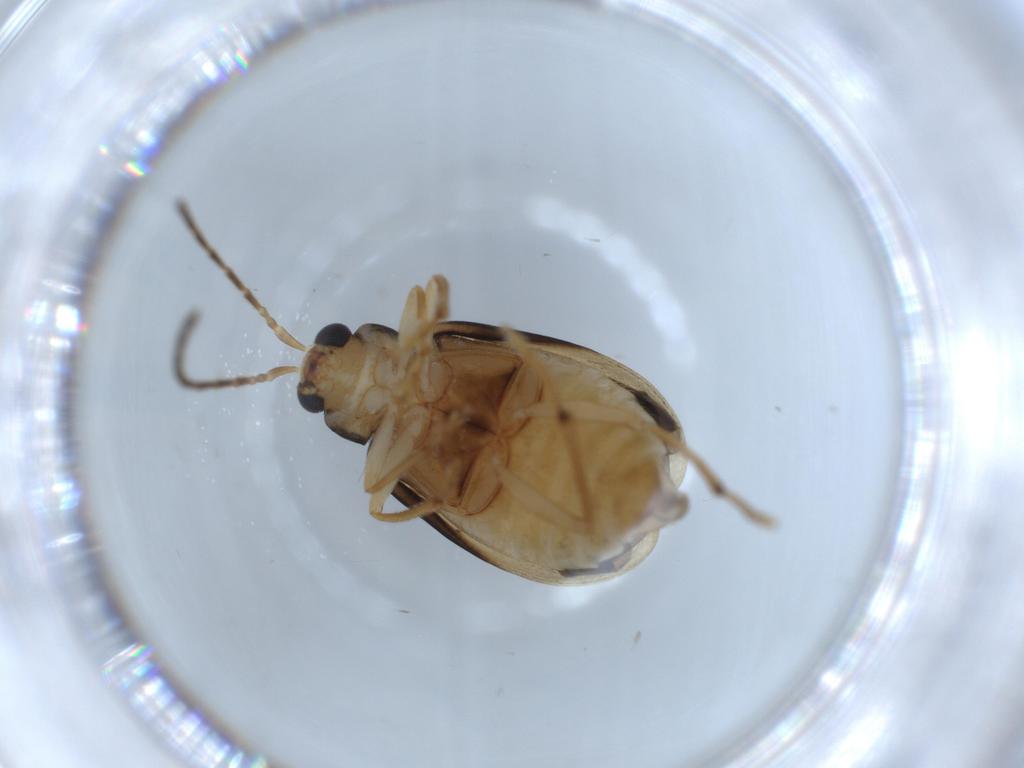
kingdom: Animalia
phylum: Arthropoda
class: Insecta
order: Coleoptera
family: Chrysomelidae
